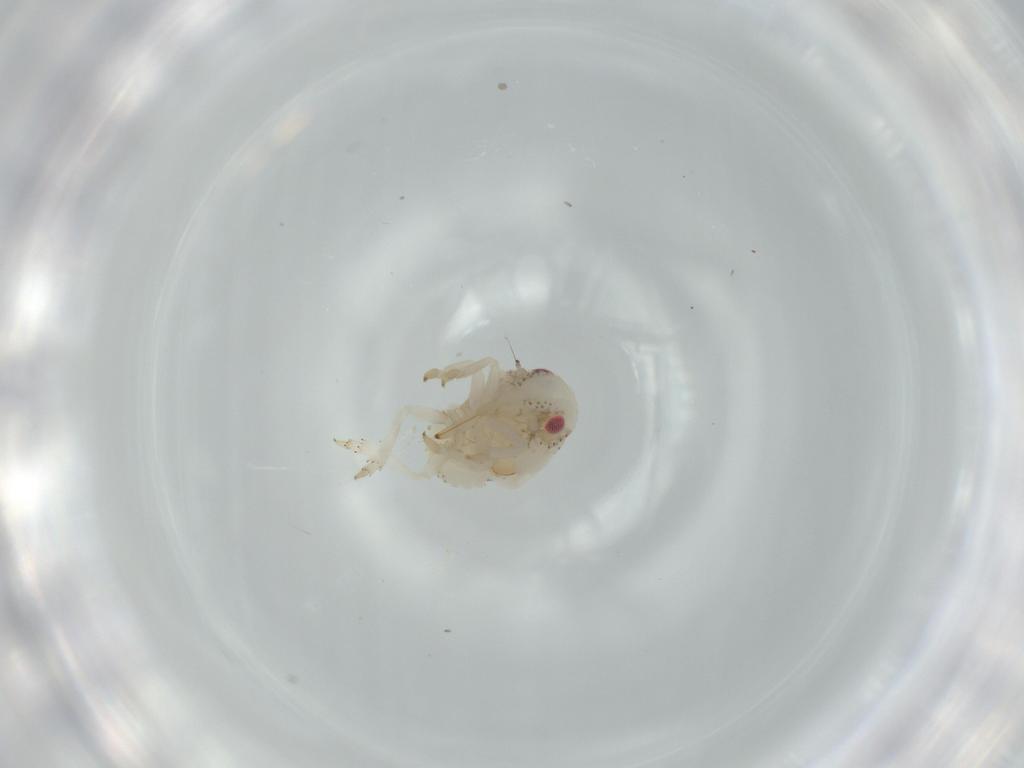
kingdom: Animalia
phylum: Arthropoda
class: Insecta
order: Hemiptera
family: Acanaloniidae
